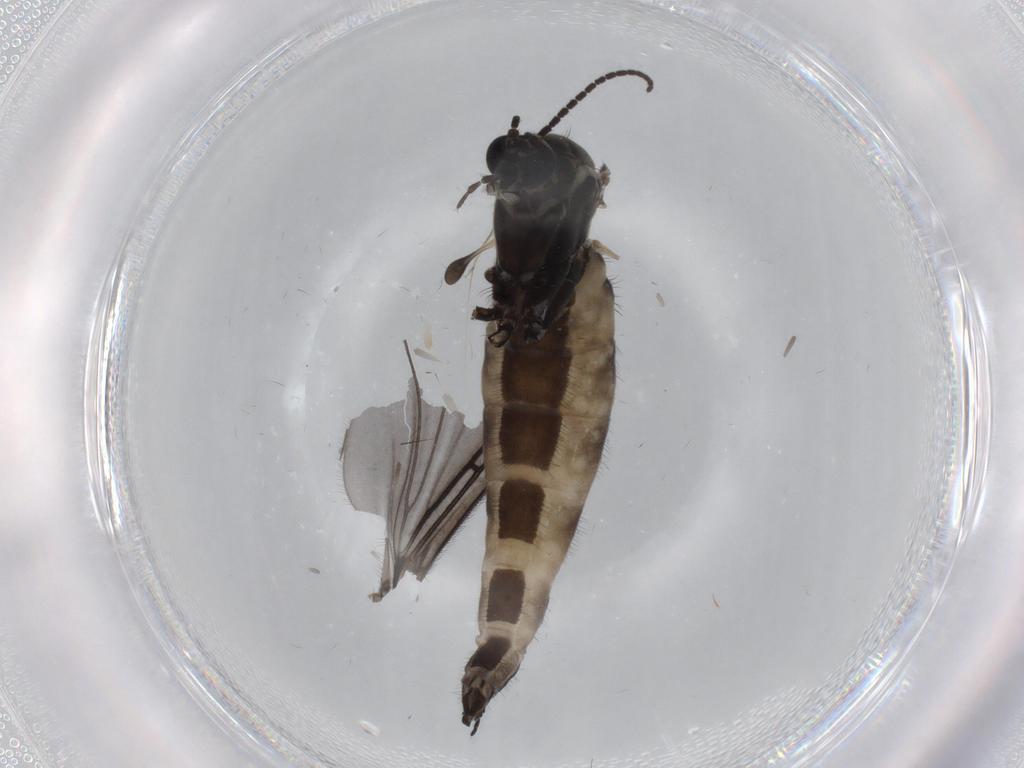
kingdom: Animalia
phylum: Arthropoda
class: Insecta
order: Diptera
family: Sciaridae
